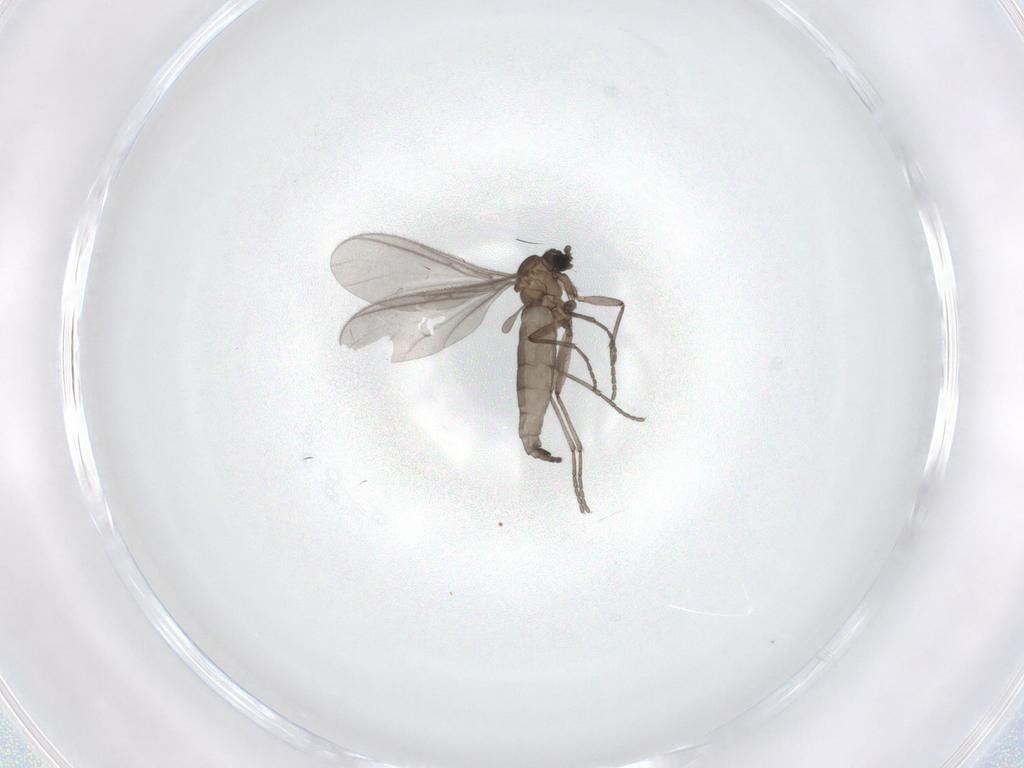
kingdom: Animalia
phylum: Arthropoda
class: Insecta
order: Diptera
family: Sciaridae
